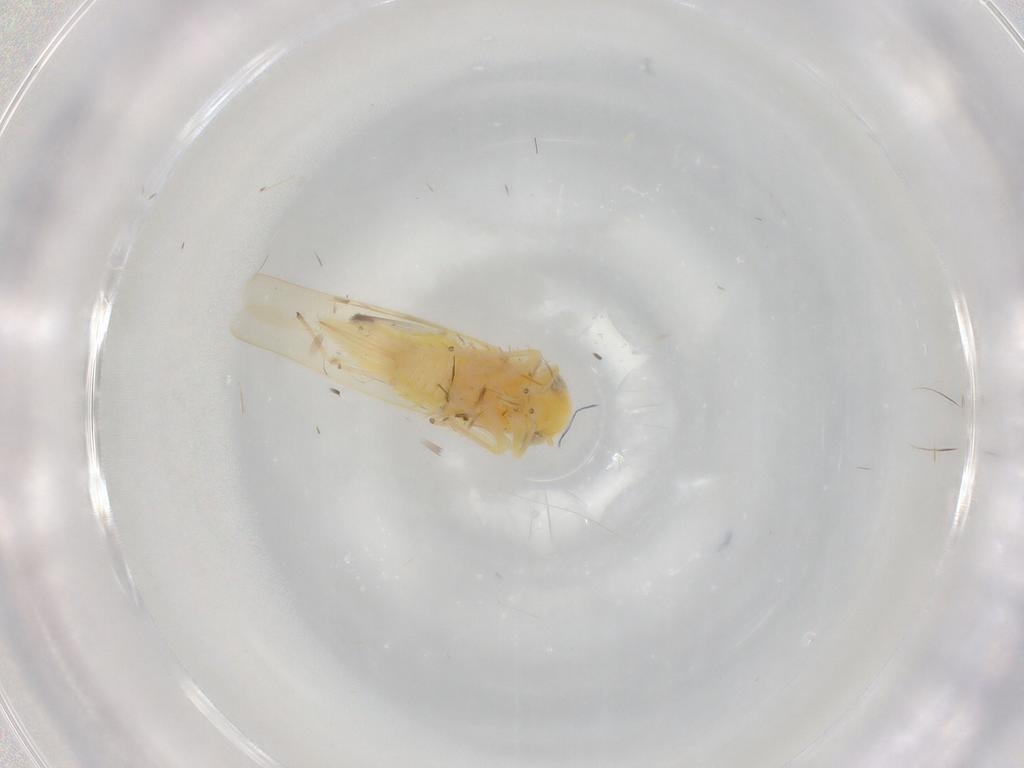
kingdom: Animalia
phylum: Arthropoda
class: Insecta
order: Hemiptera
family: Cicadellidae
